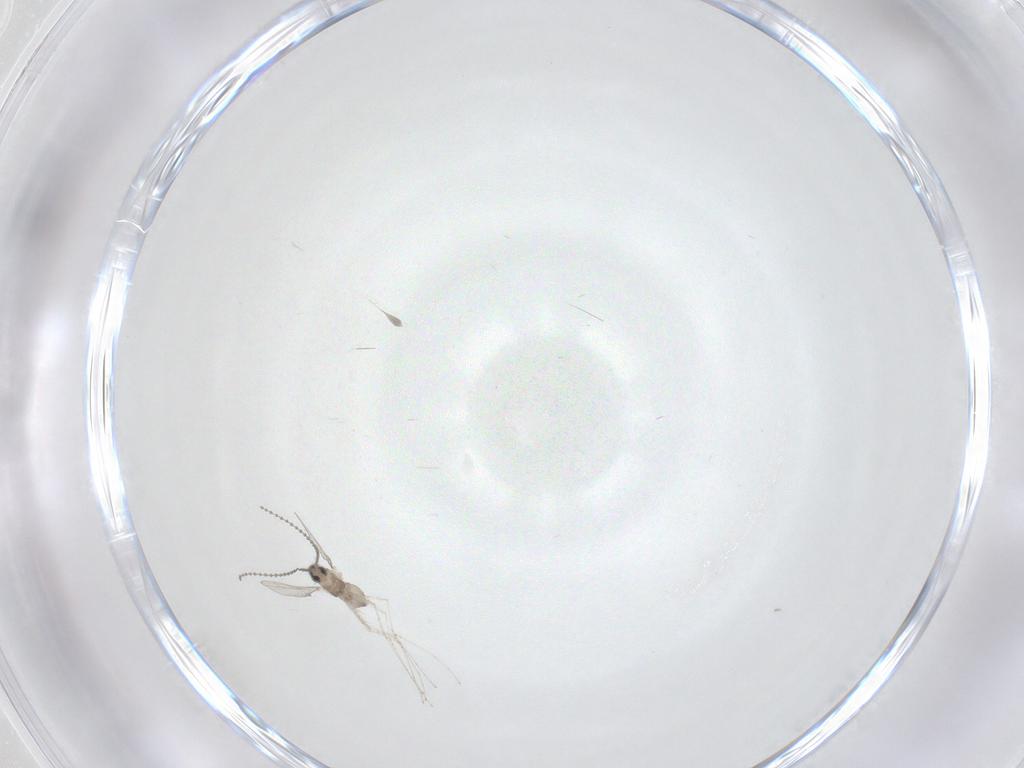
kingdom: Animalia
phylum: Arthropoda
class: Insecta
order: Diptera
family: Cecidomyiidae
